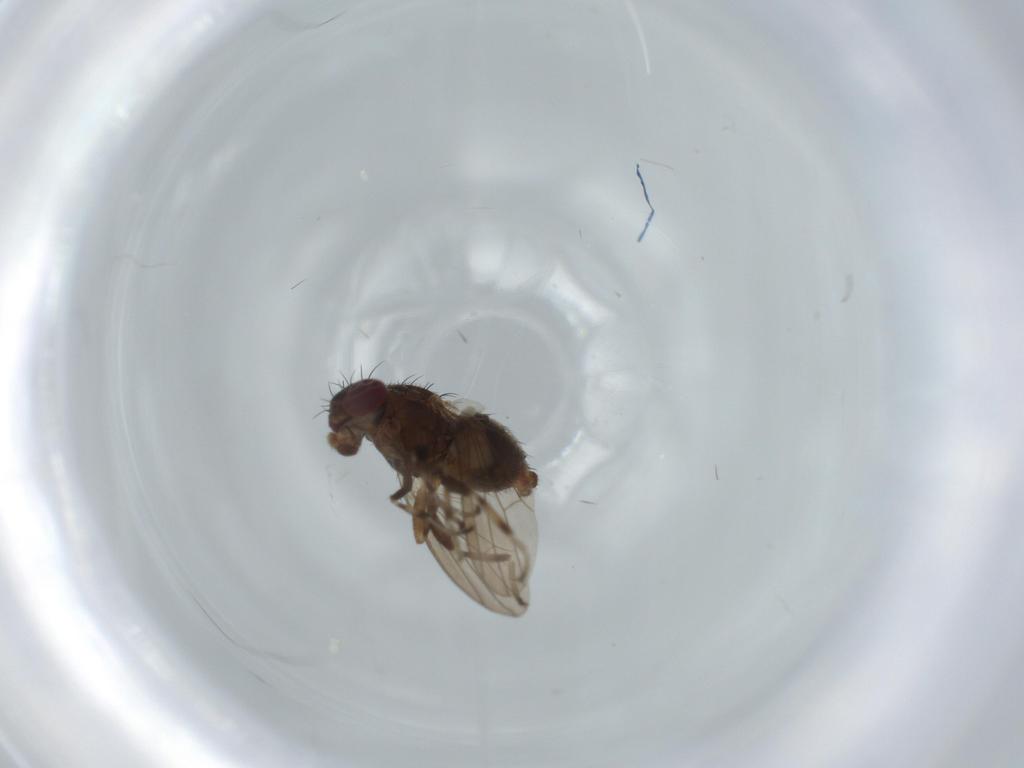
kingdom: Animalia
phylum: Arthropoda
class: Insecta
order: Diptera
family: Heleomyzidae
